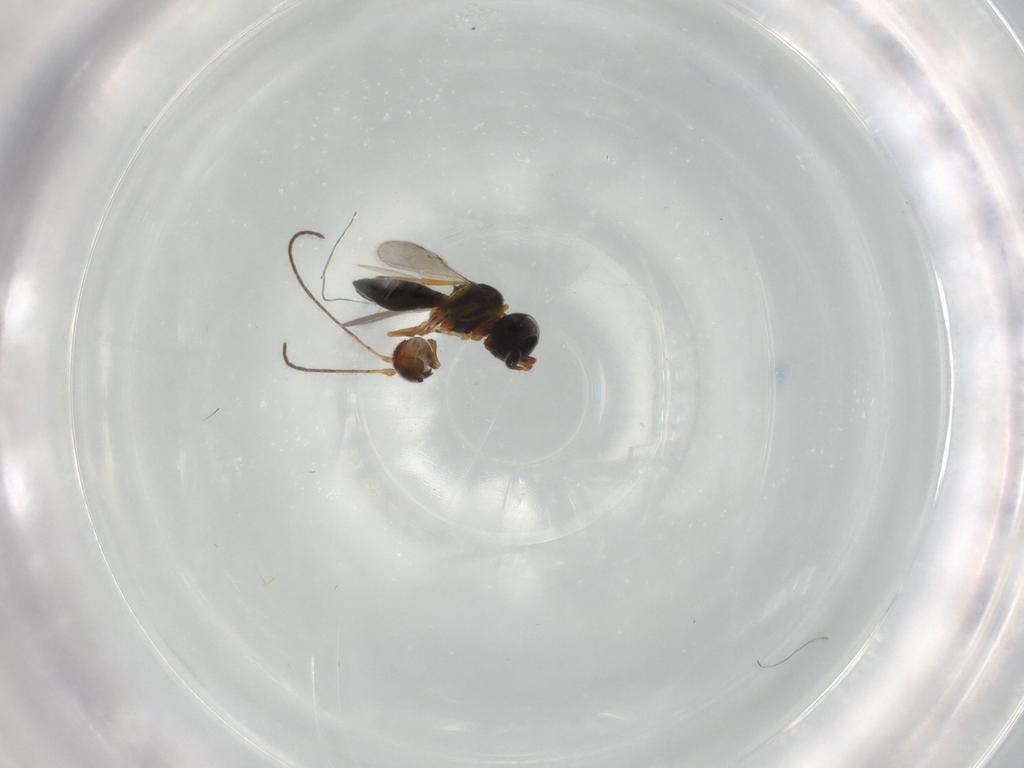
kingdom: Animalia
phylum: Arthropoda
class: Insecta
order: Hymenoptera
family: Scelionidae
